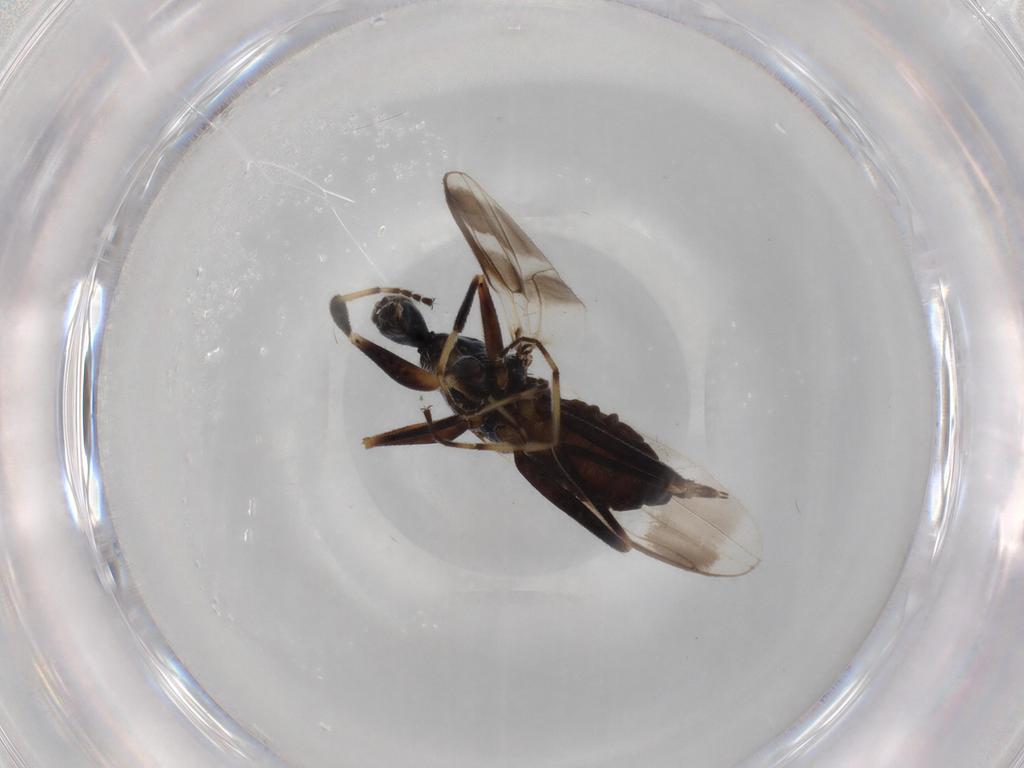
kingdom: Animalia
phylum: Arthropoda
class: Insecta
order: Diptera
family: Hybotidae
